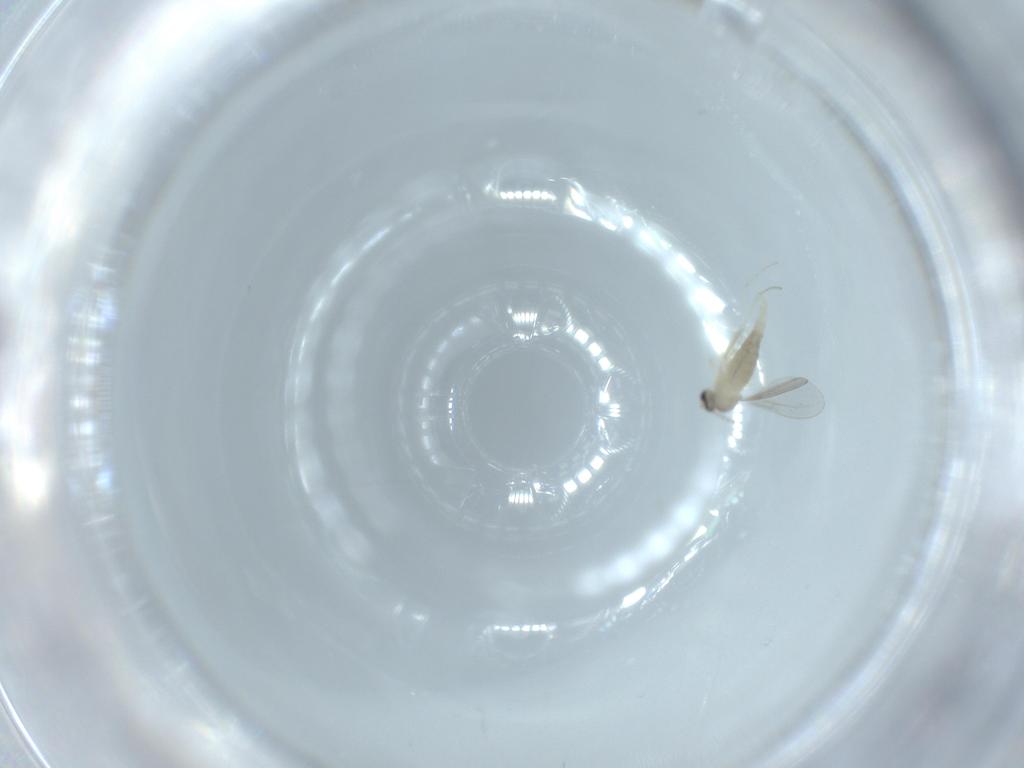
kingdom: Animalia
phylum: Arthropoda
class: Insecta
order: Diptera
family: Cecidomyiidae
